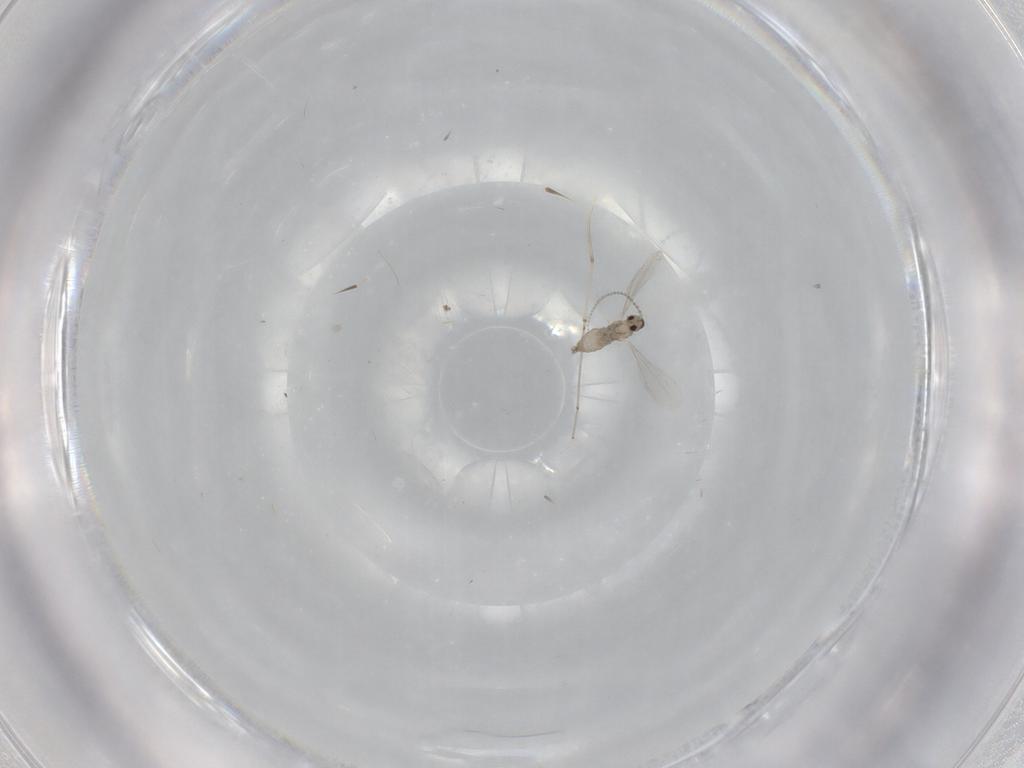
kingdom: Animalia
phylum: Arthropoda
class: Insecta
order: Diptera
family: Cecidomyiidae
